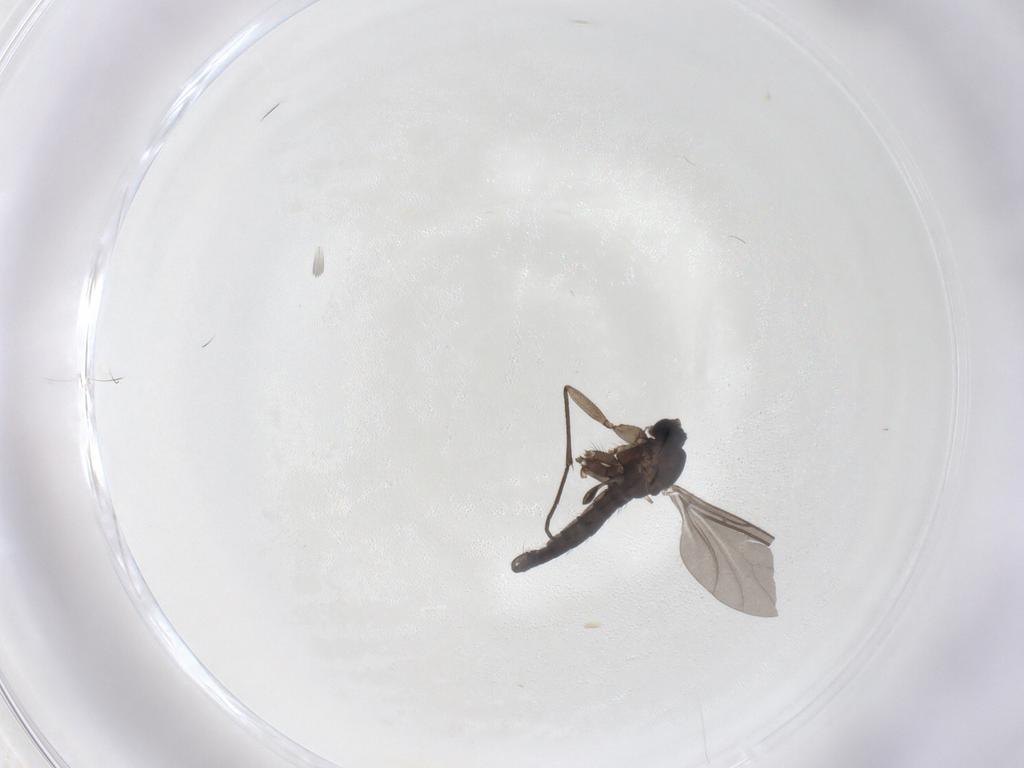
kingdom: Animalia
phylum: Arthropoda
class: Insecta
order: Diptera
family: Sciaridae
